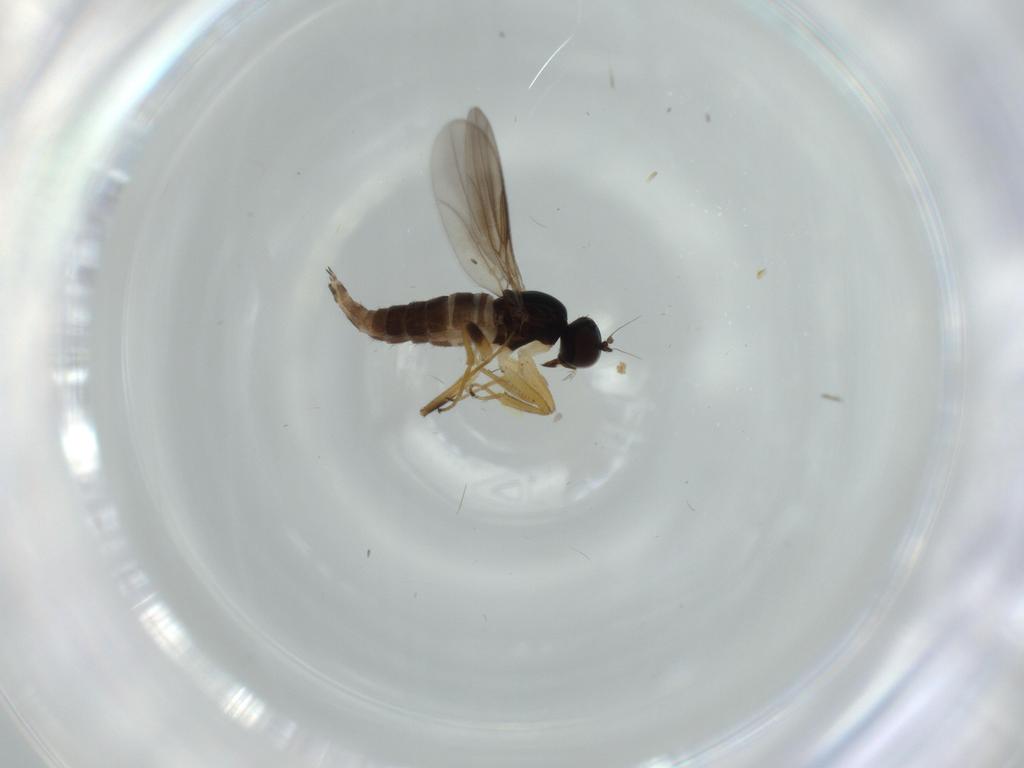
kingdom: Animalia
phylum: Arthropoda
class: Insecta
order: Diptera
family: Hybotidae
